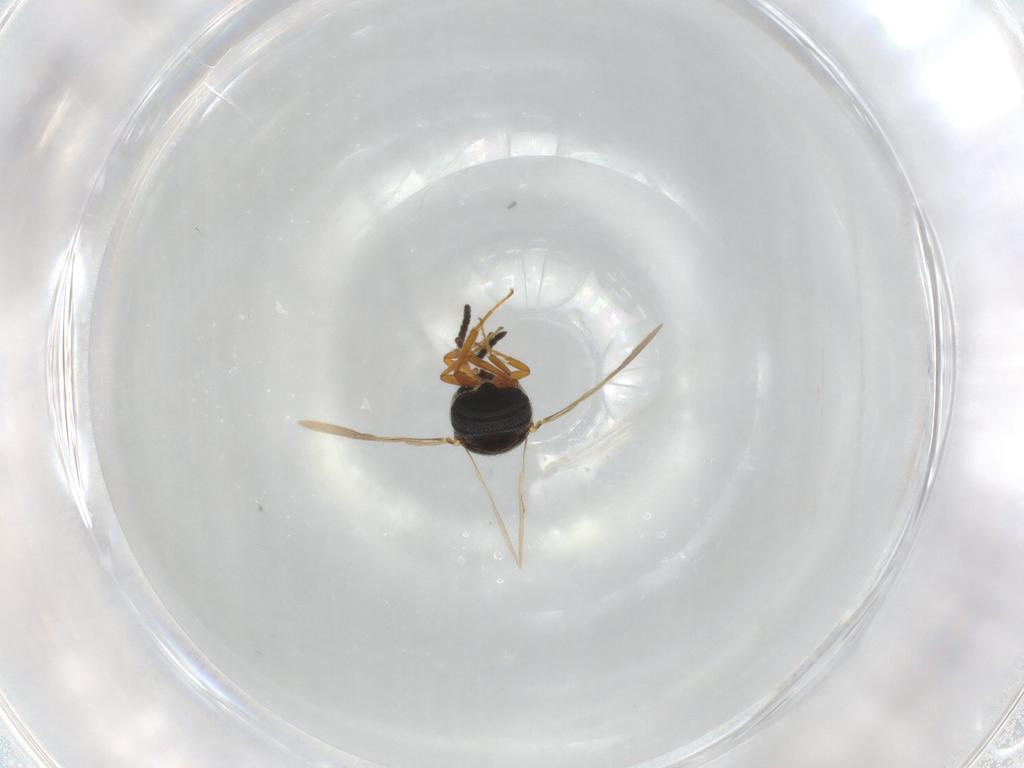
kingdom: Animalia
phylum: Arthropoda
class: Insecta
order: Hymenoptera
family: Scelionidae
